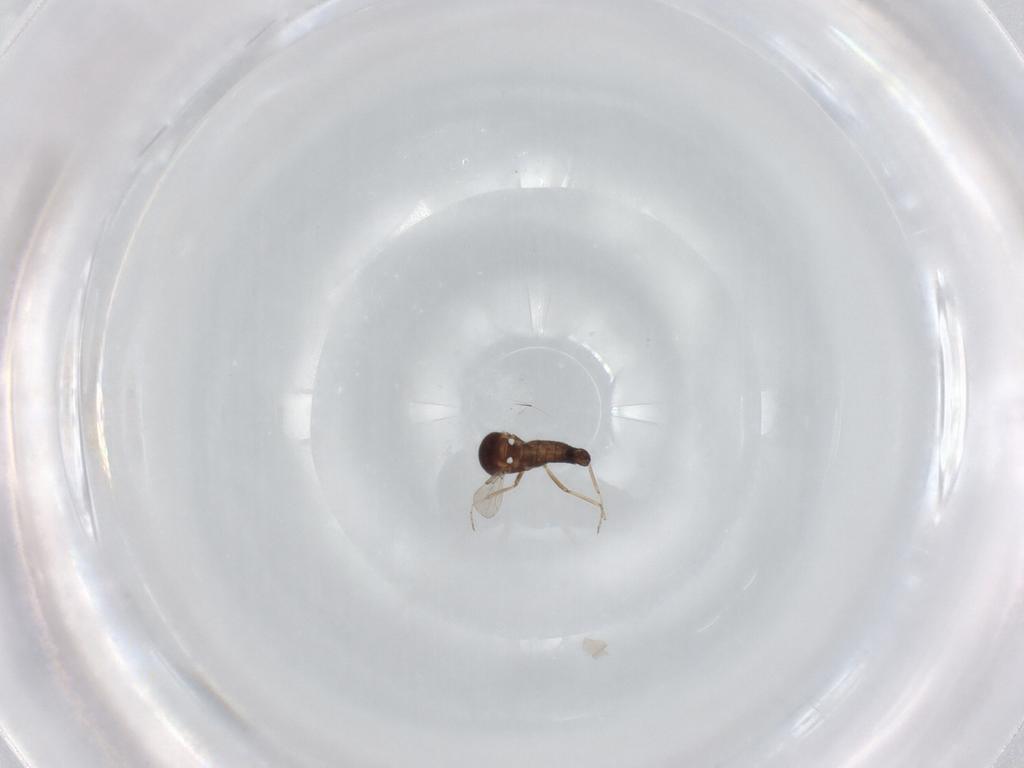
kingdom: Animalia
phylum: Arthropoda
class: Insecta
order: Diptera
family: Ceratopogonidae
